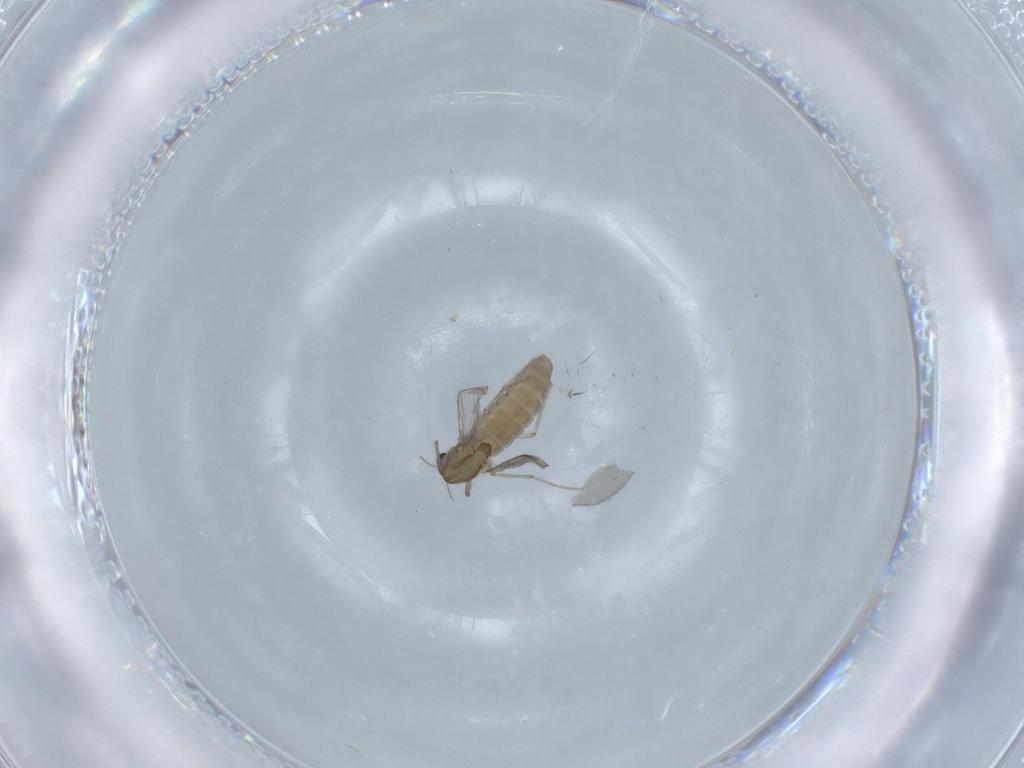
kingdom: Animalia
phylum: Arthropoda
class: Insecta
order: Diptera
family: Chironomidae
